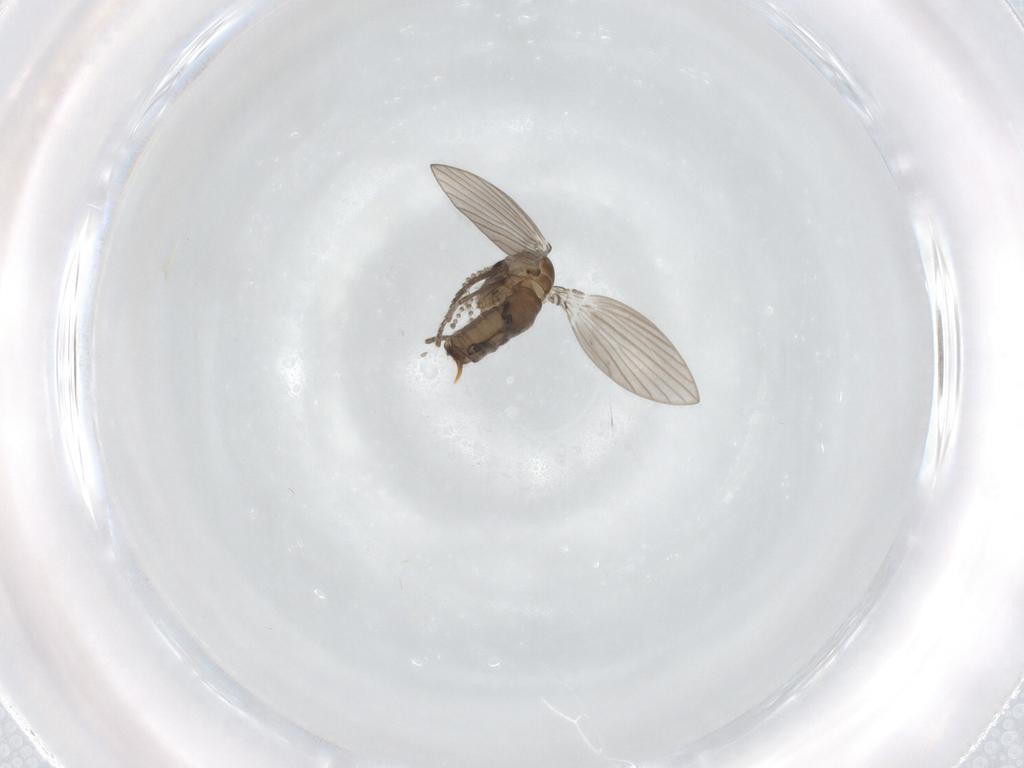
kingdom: Animalia
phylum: Arthropoda
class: Insecta
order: Diptera
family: Psychodidae
